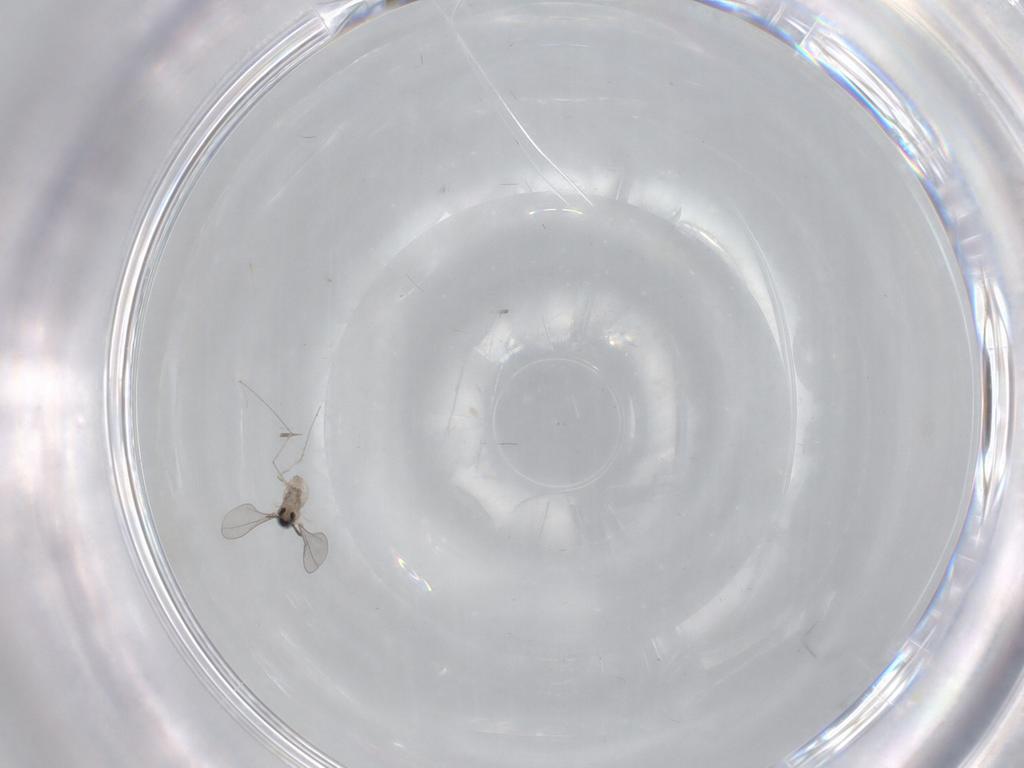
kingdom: Animalia
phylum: Arthropoda
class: Insecta
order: Diptera
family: Cecidomyiidae
